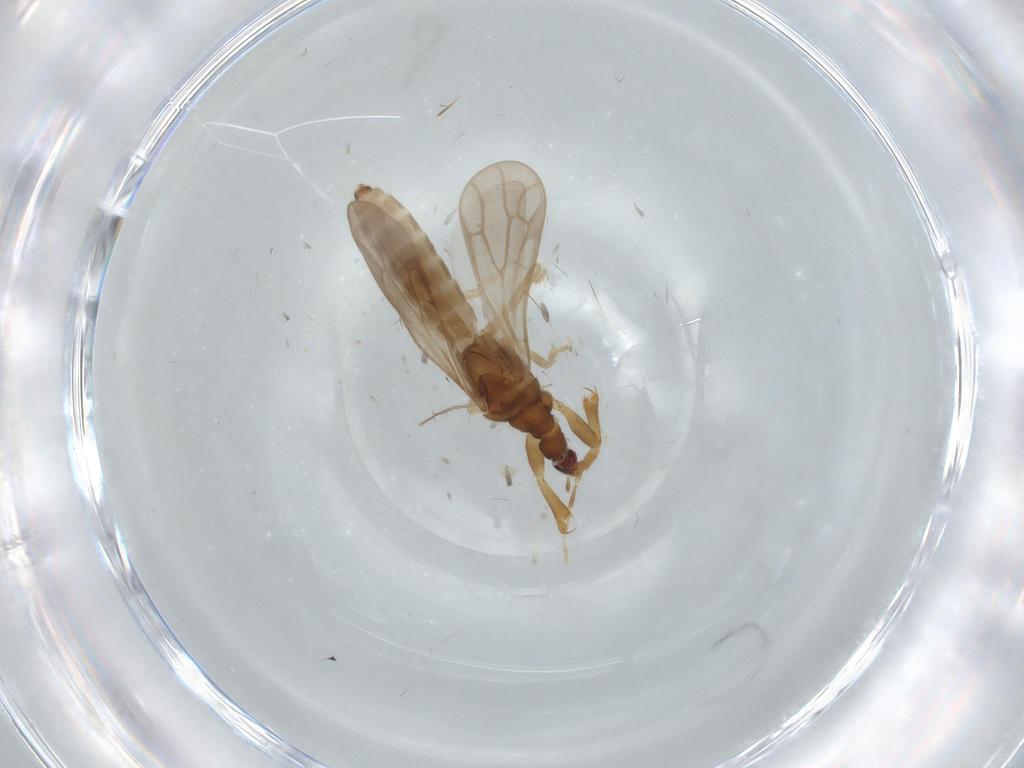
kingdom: Animalia
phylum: Arthropoda
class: Insecta
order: Hemiptera
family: Enicocephalidae
